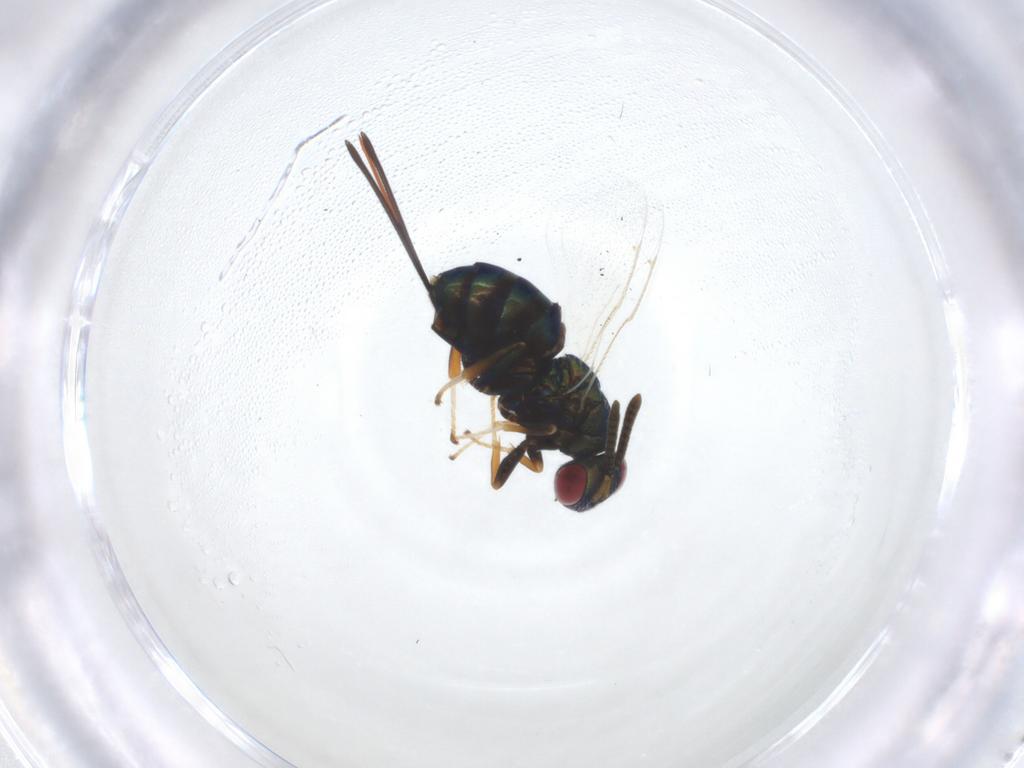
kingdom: Animalia
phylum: Arthropoda
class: Insecta
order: Hymenoptera
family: Torymidae
